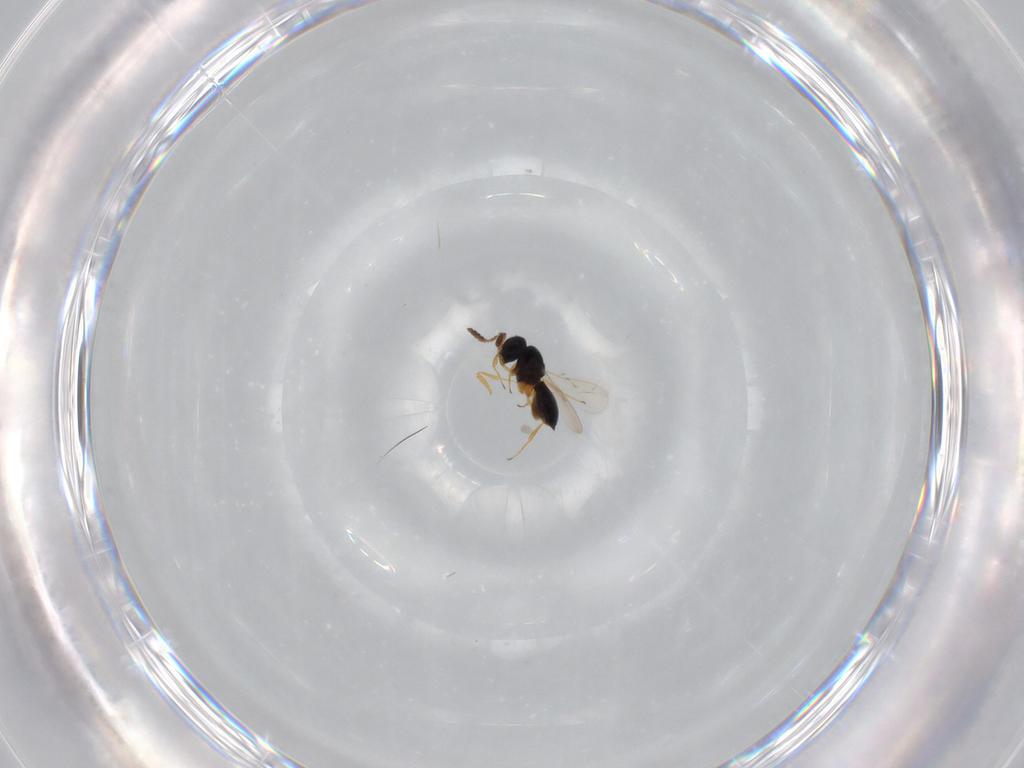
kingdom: Animalia
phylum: Arthropoda
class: Insecta
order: Hymenoptera
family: Scelionidae
